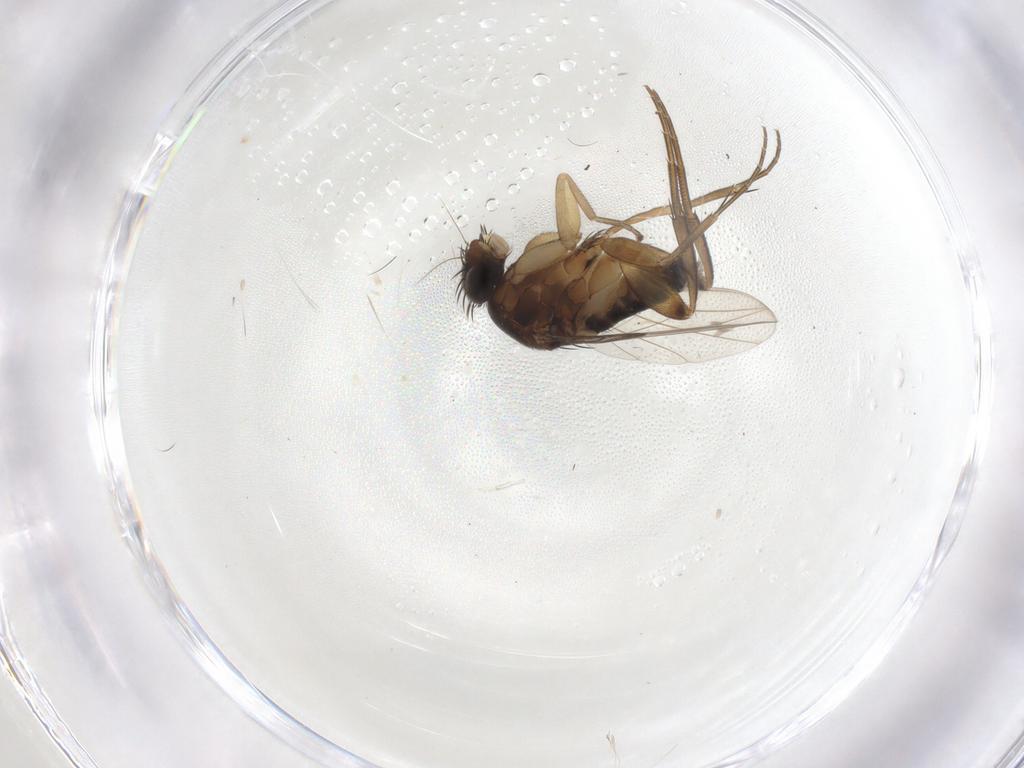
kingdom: Animalia
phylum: Arthropoda
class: Insecta
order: Diptera
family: Phoridae
